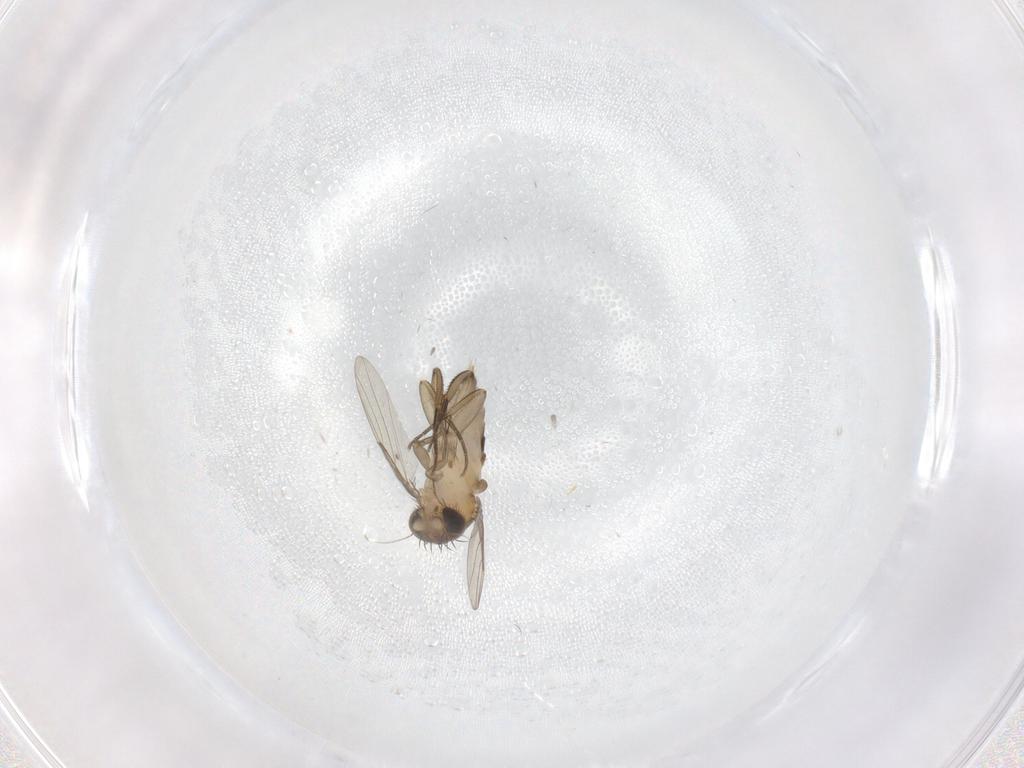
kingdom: Animalia
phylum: Arthropoda
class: Insecta
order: Diptera
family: Phoridae
